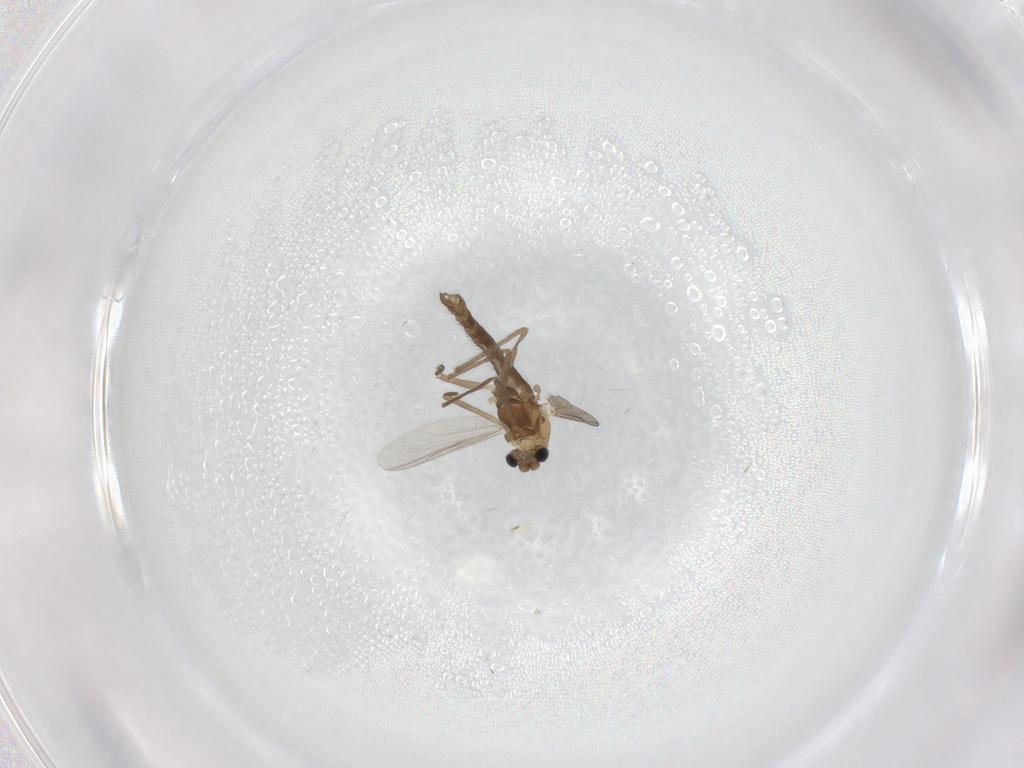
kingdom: Animalia
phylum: Arthropoda
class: Insecta
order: Diptera
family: Chironomidae
